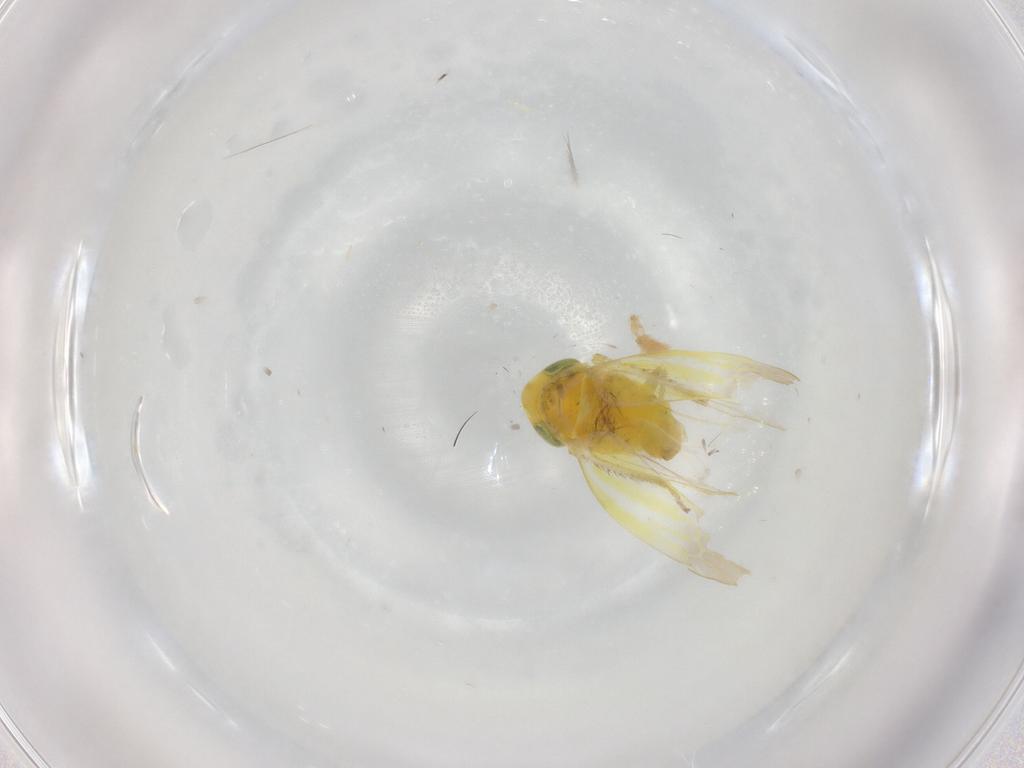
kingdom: Animalia
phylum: Arthropoda
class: Insecta
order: Hemiptera
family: Cicadellidae
